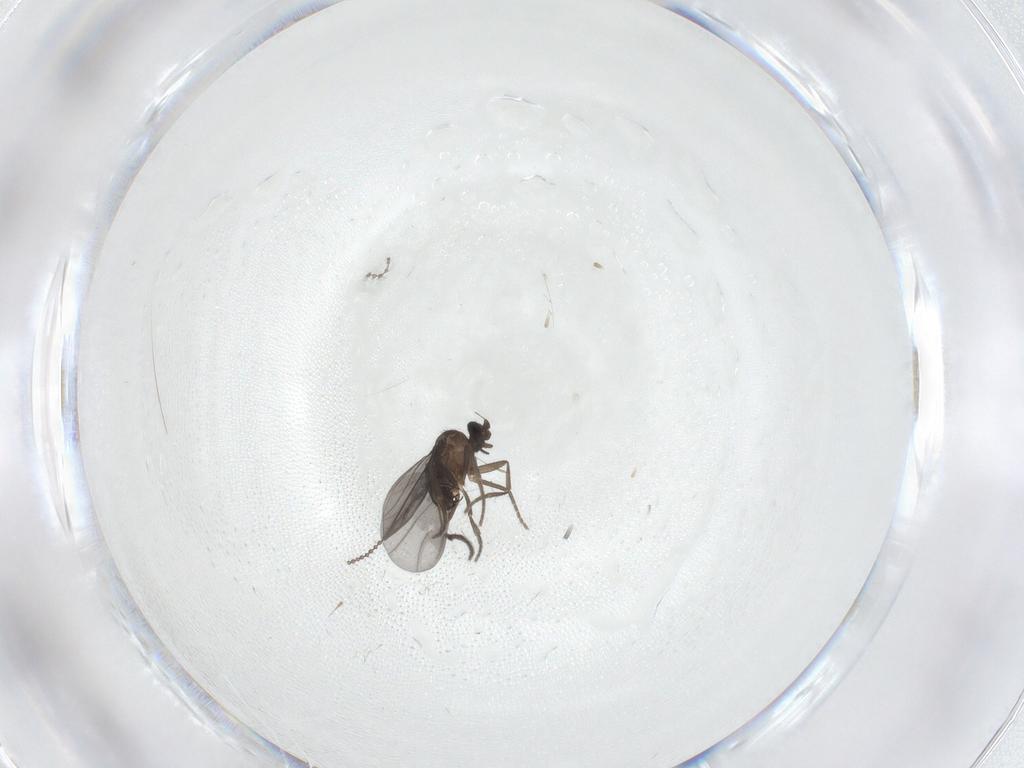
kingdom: Animalia
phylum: Arthropoda
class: Insecta
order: Diptera
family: Phoridae
